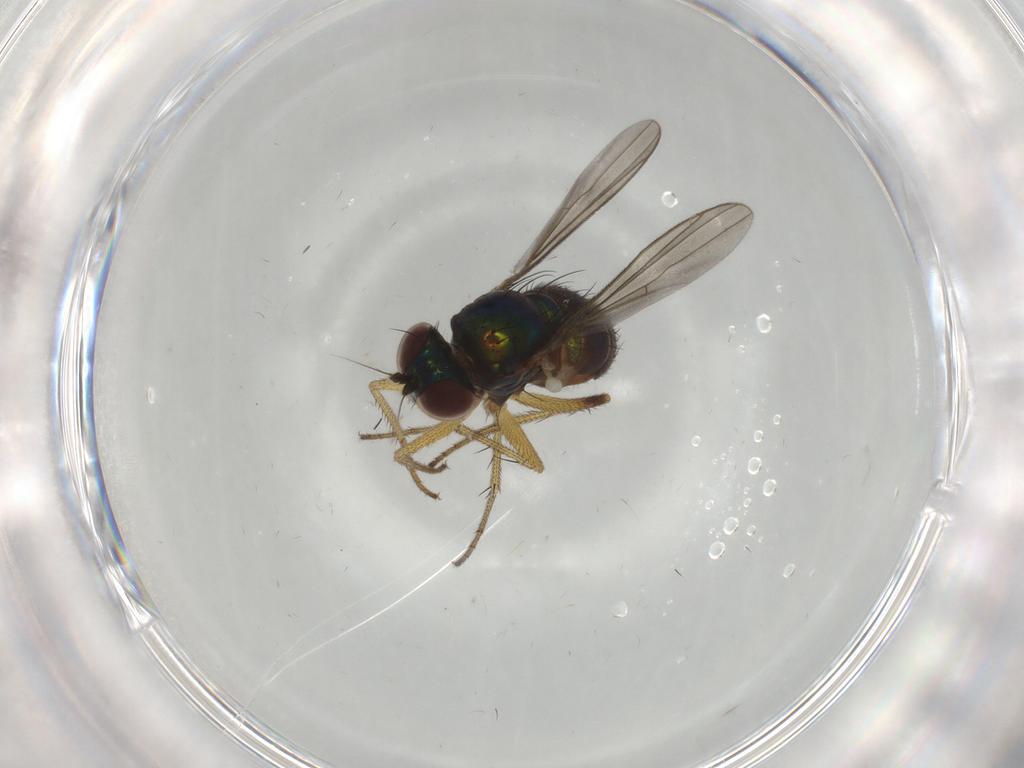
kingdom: Animalia
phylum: Arthropoda
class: Insecta
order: Diptera
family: Dolichopodidae
